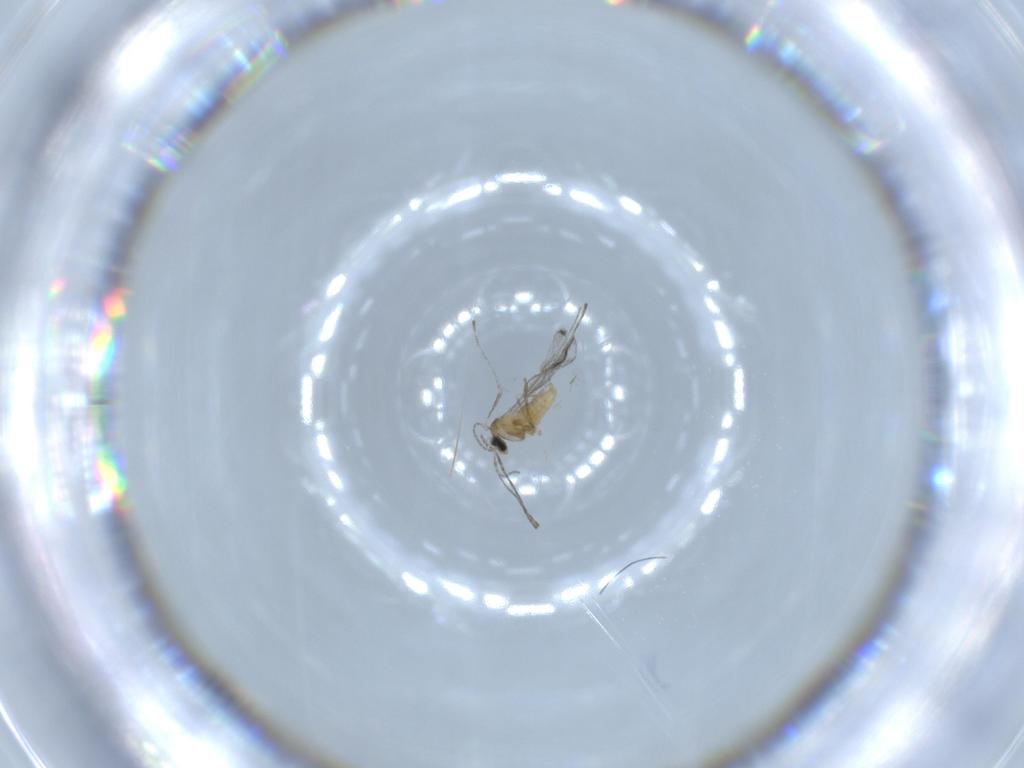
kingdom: Animalia
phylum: Arthropoda
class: Insecta
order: Diptera
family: Cecidomyiidae
